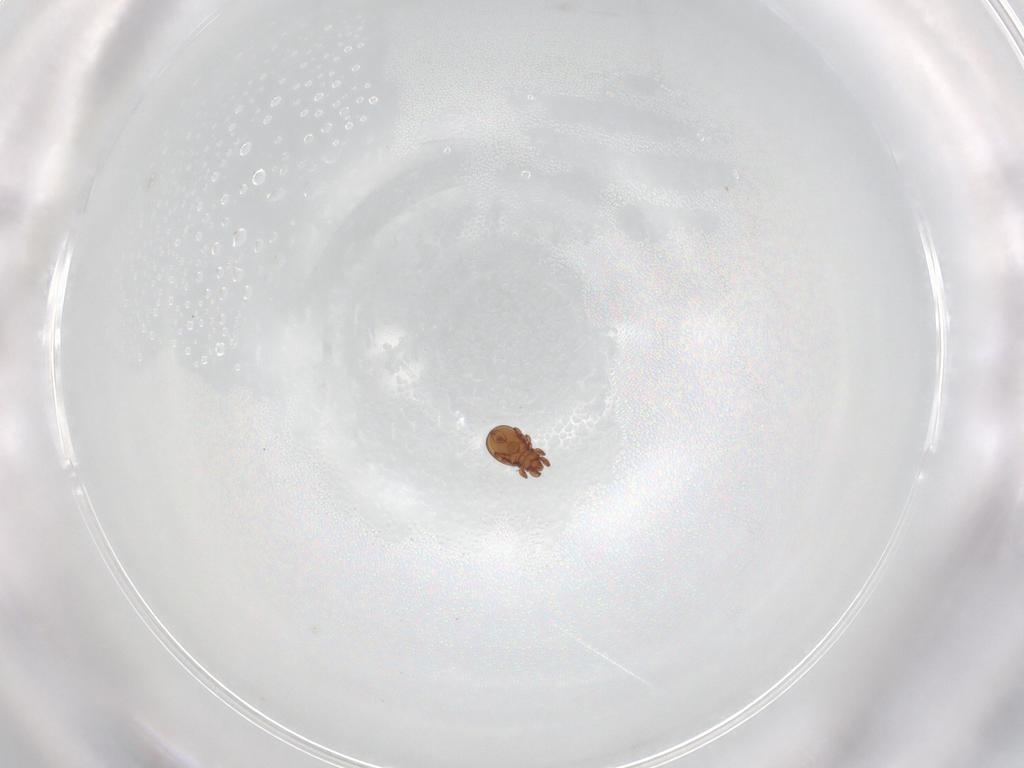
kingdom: Animalia
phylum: Arthropoda
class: Arachnida
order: Sarcoptiformes
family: Eremaeidae
